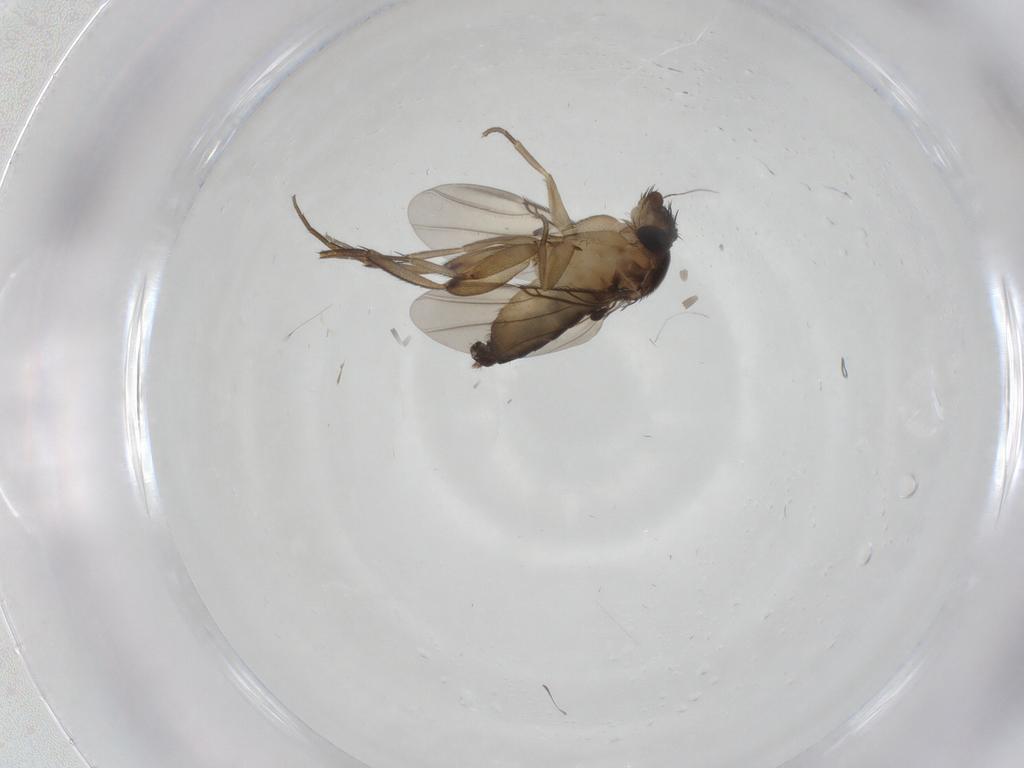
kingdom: Animalia
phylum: Arthropoda
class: Insecta
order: Diptera
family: Phoridae
